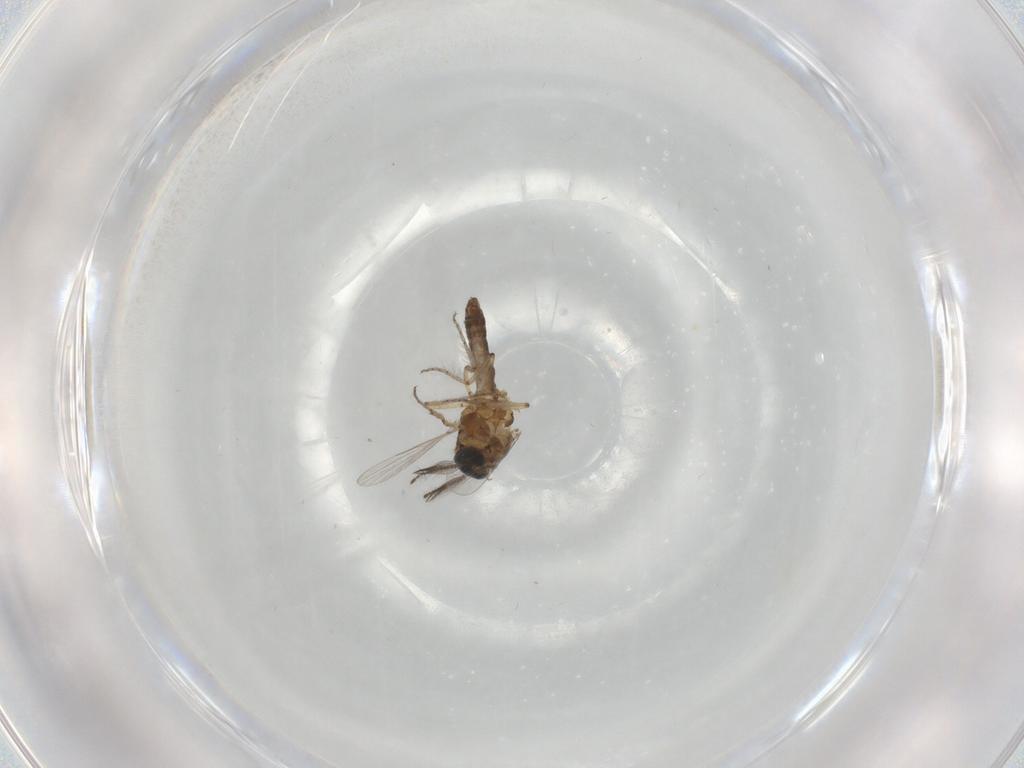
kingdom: Animalia
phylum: Arthropoda
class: Insecta
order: Diptera
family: Ceratopogonidae
